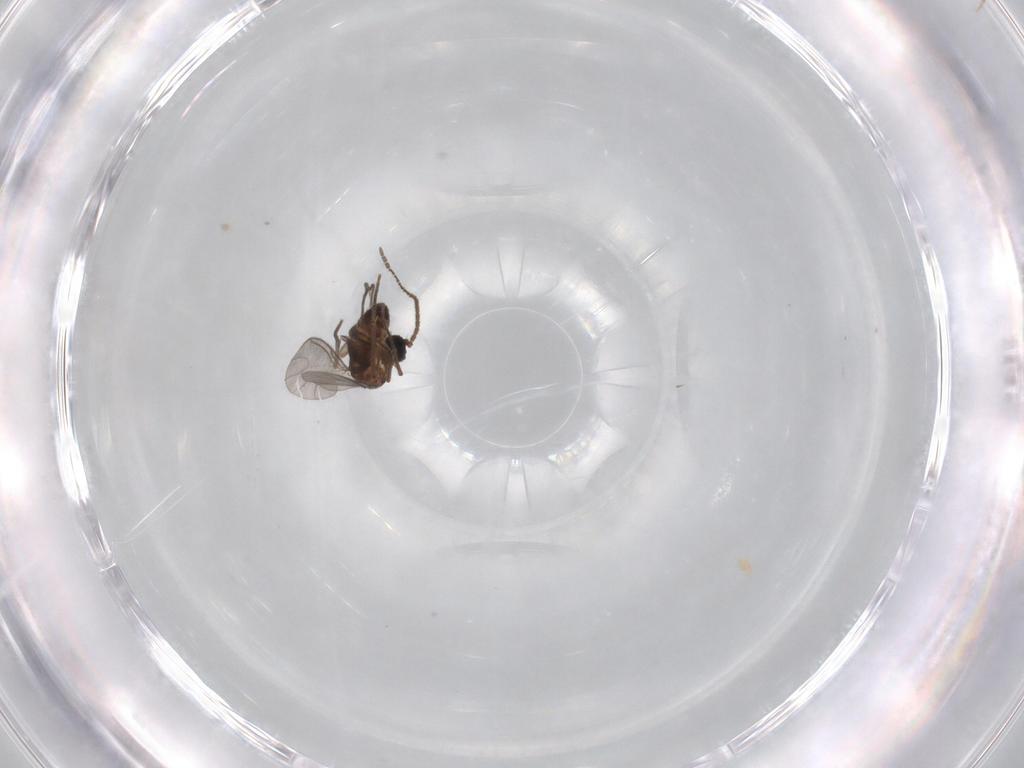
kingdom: Animalia
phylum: Arthropoda
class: Insecta
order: Diptera
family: Sciaridae
